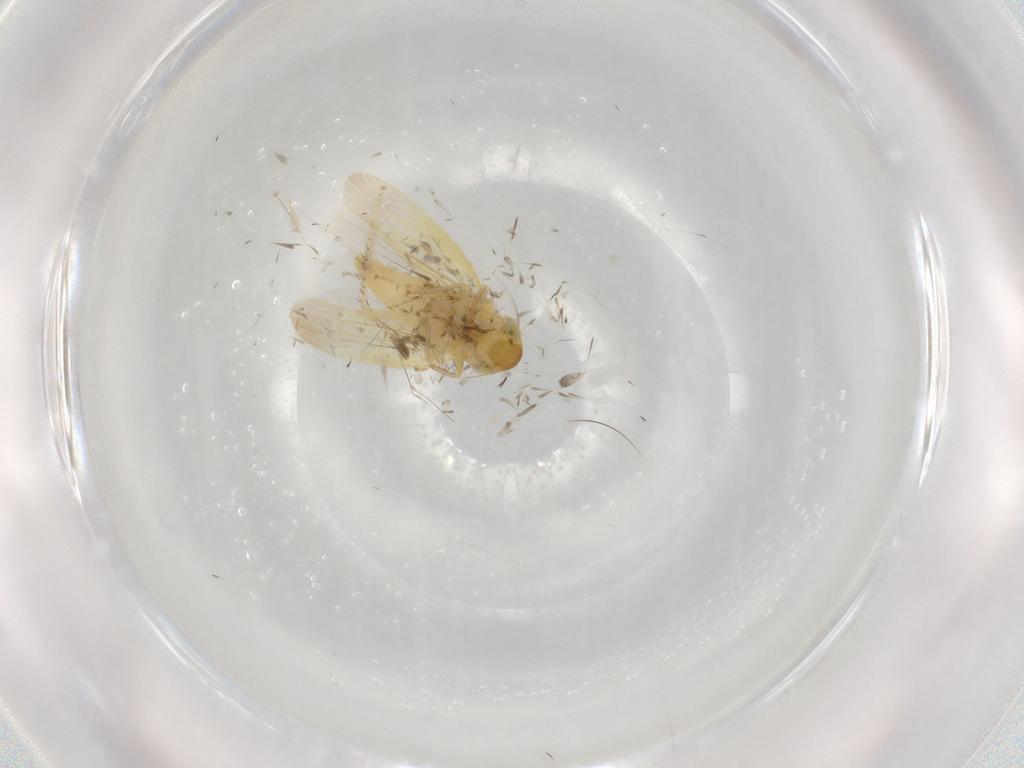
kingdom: Animalia
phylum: Arthropoda
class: Insecta
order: Hemiptera
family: Cicadellidae
